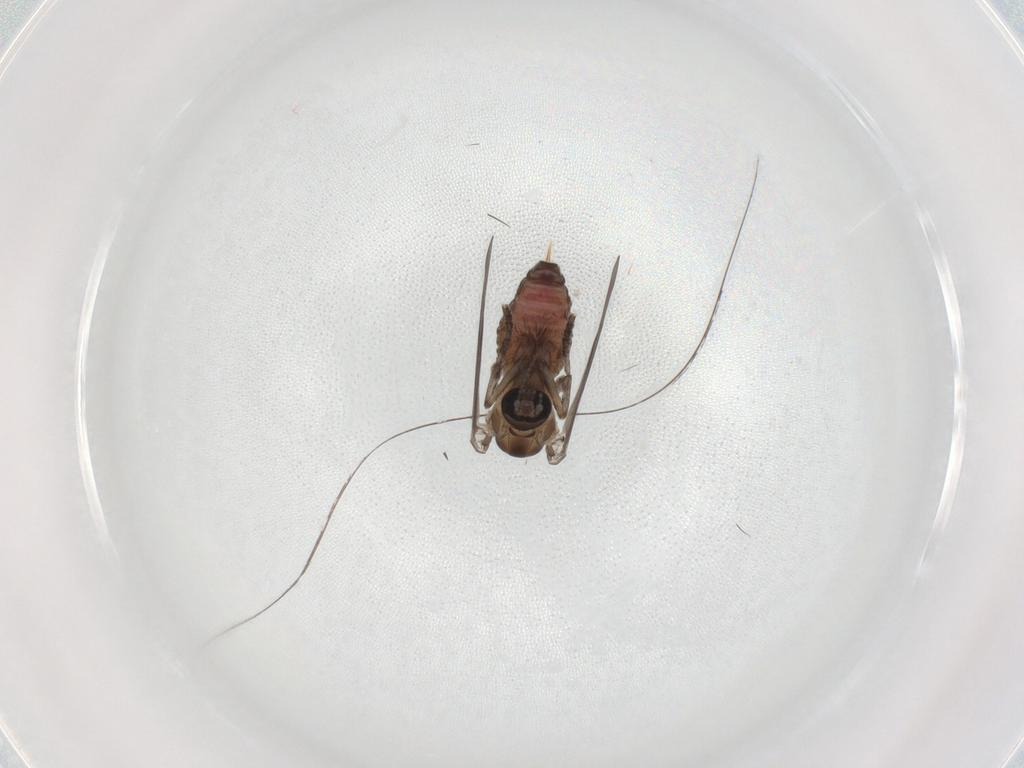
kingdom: Animalia
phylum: Arthropoda
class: Insecta
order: Diptera
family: Psychodidae
